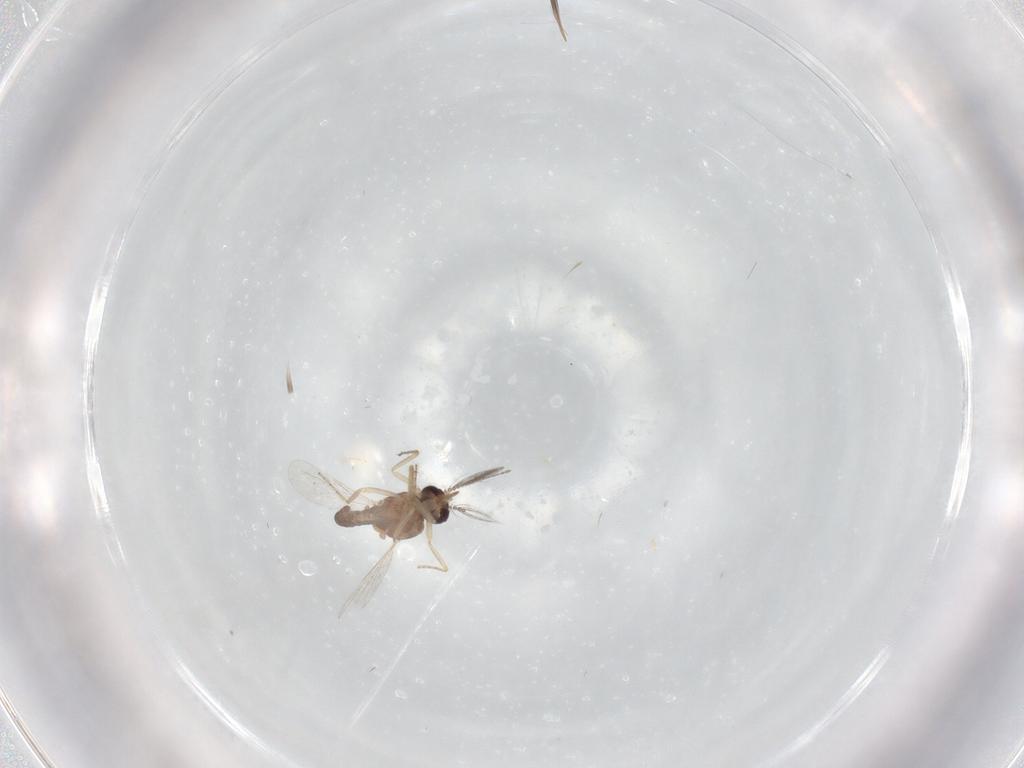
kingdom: Animalia
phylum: Arthropoda
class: Insecta
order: Diptera
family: Ceratopogonidae
